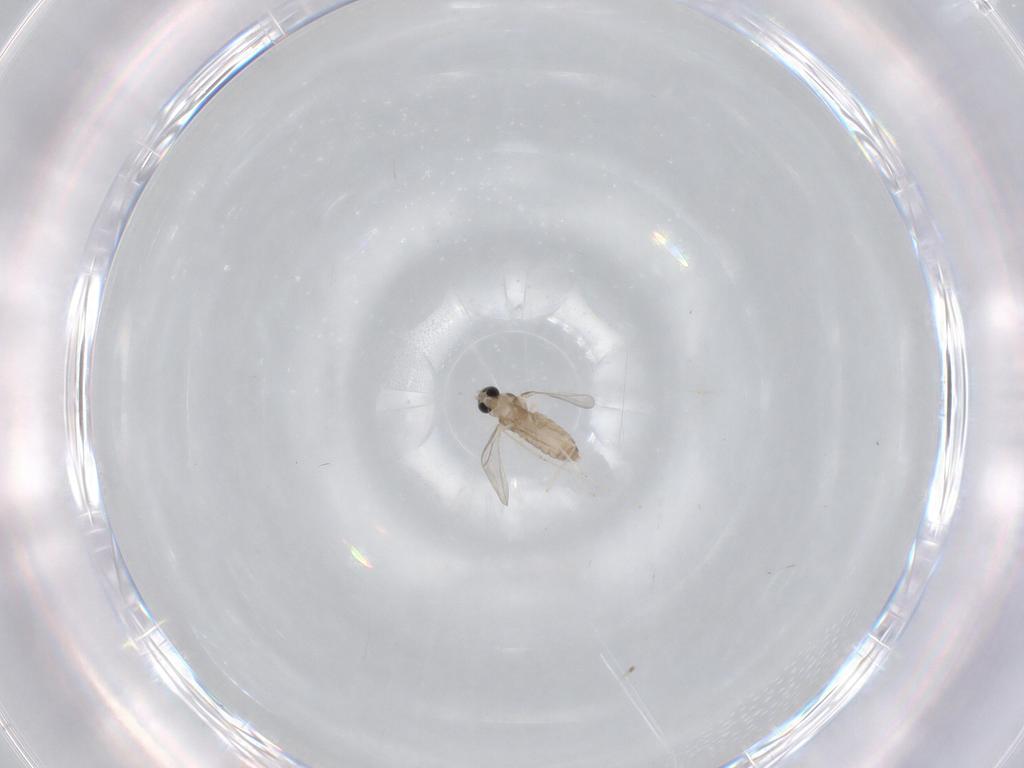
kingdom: Animalia
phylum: Arthropoda
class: Insecta
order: Diptera
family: Cecidomyiidae
